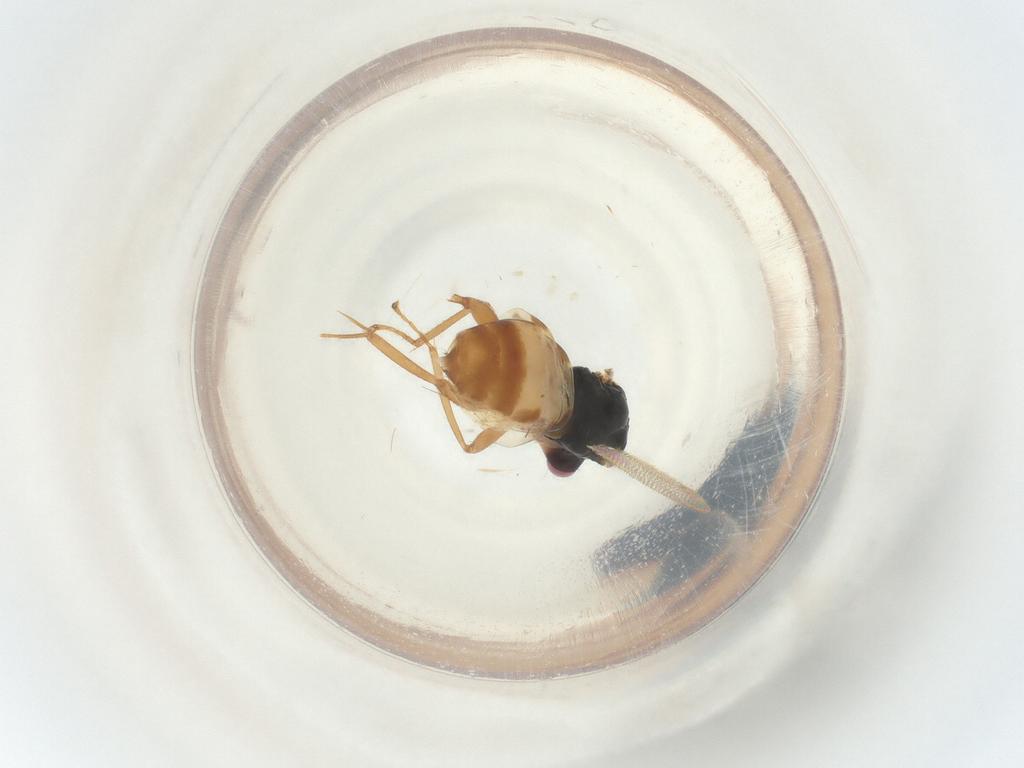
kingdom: Animalia
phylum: Arthropoda
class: Insecta
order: Hymenoptera
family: Eulophidae
